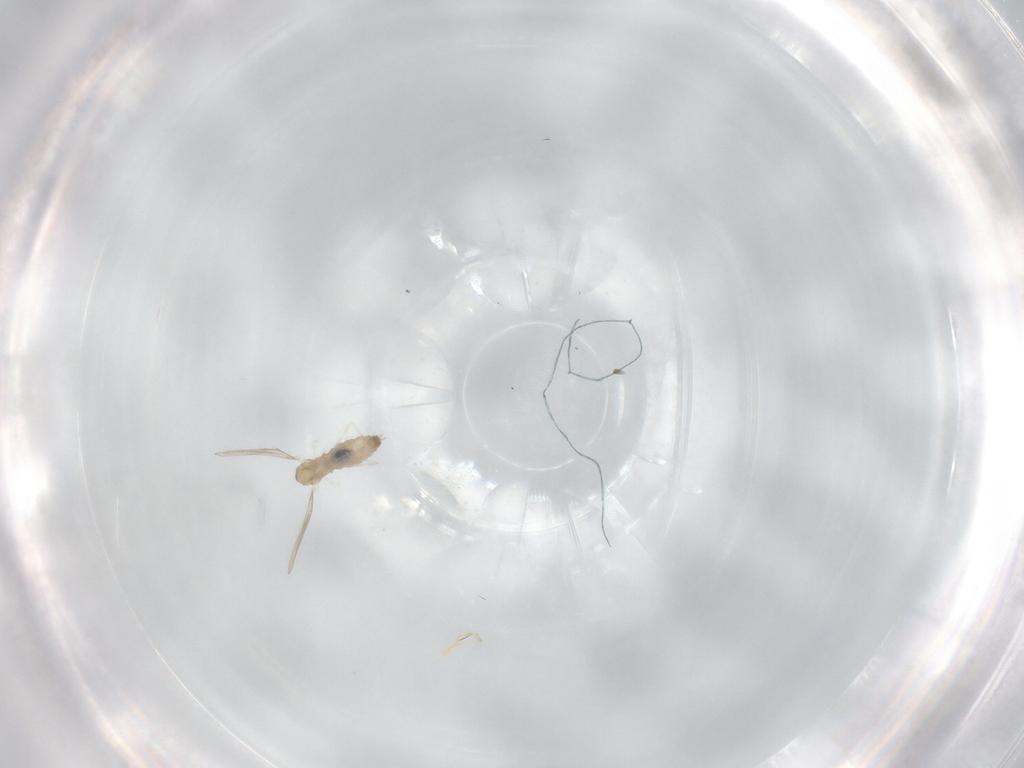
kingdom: Animalia
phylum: Arthropoda
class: Insecta
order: Diptera
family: Cecidomyiidae
